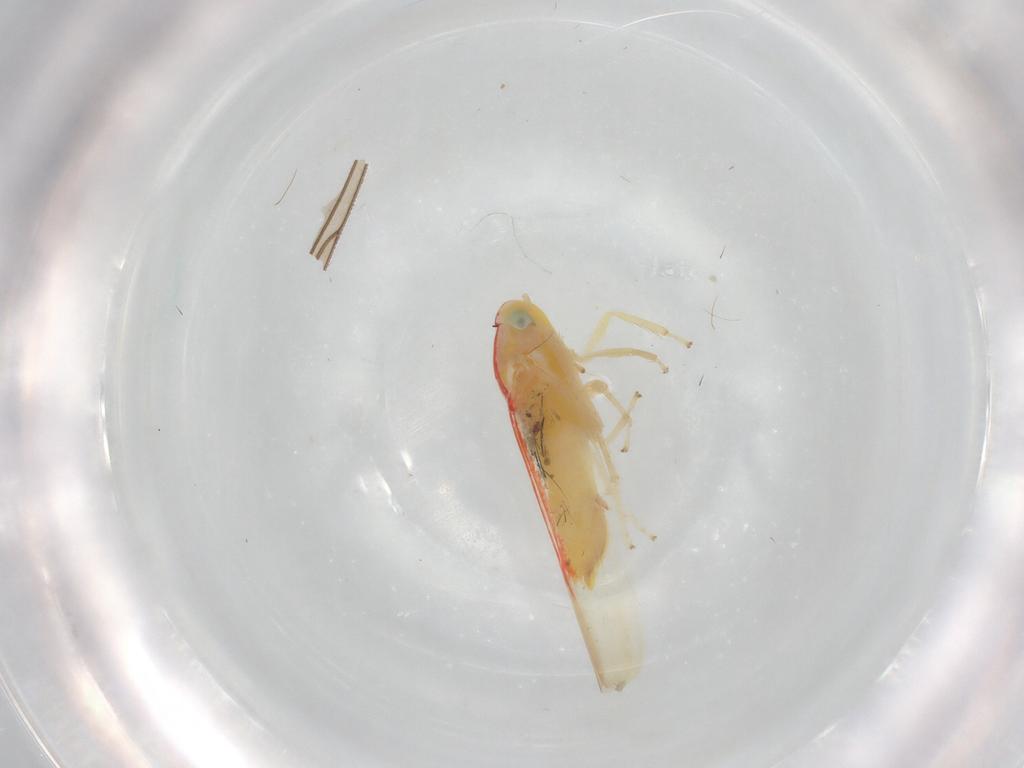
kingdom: Animalia
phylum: Arthropoda
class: Insecta
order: Hemiptera
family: Cicadellidae
